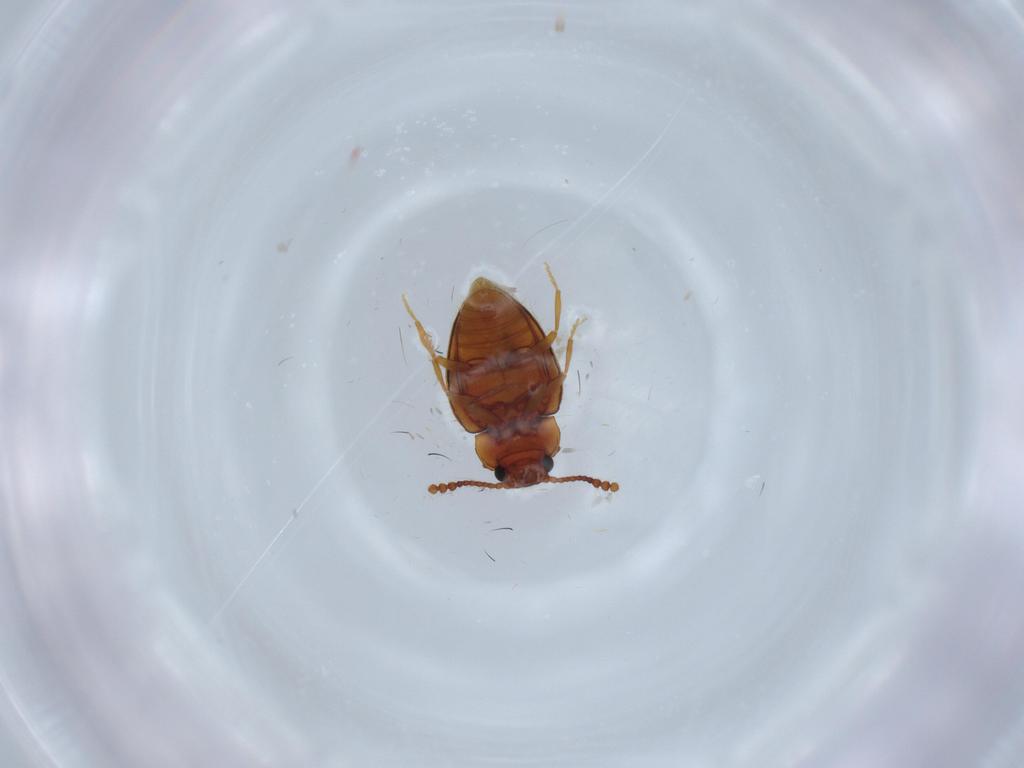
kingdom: Animalia
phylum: Arthropoda
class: Insecta
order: Coleoptera
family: Erotylidae
